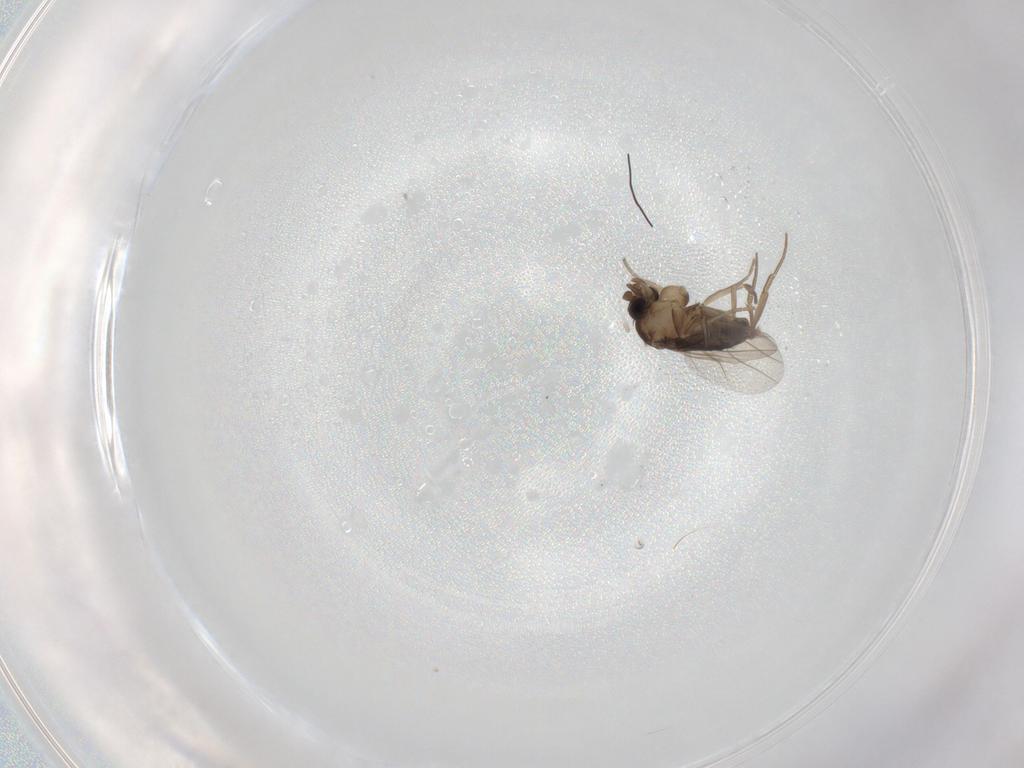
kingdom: Animalia
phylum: Arthropoda
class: Insecta
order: Diptera
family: Phoridae
